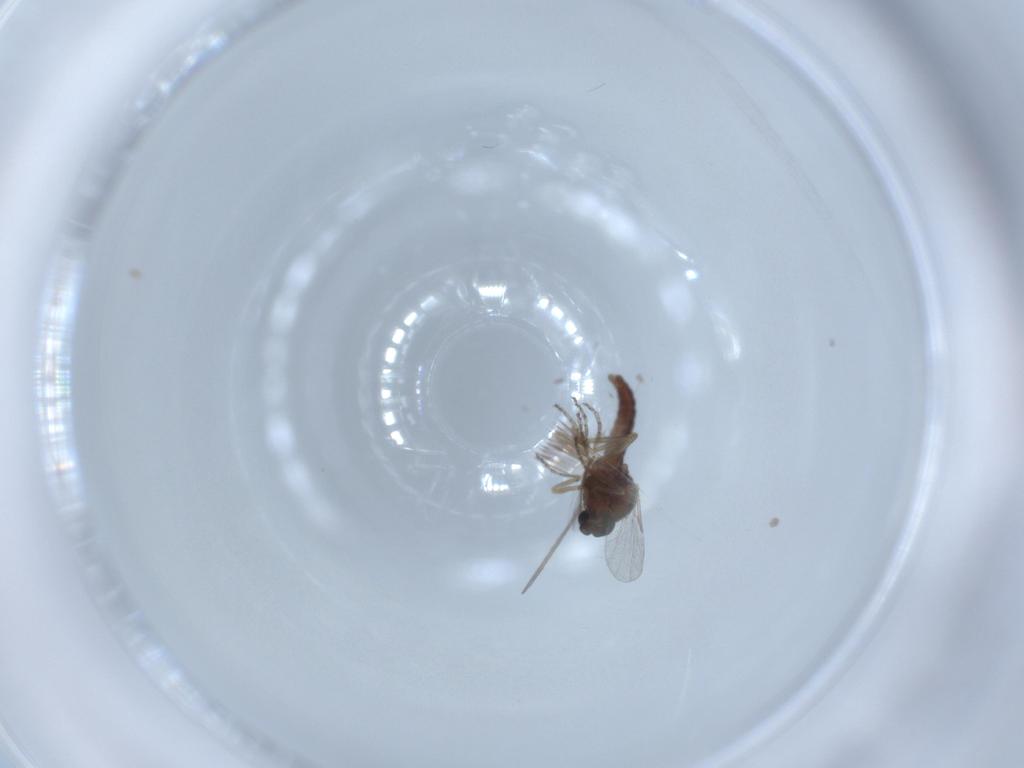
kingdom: Animalia
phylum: Arthropoda
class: Insecta
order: Diptera
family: Ceratopogonidae
